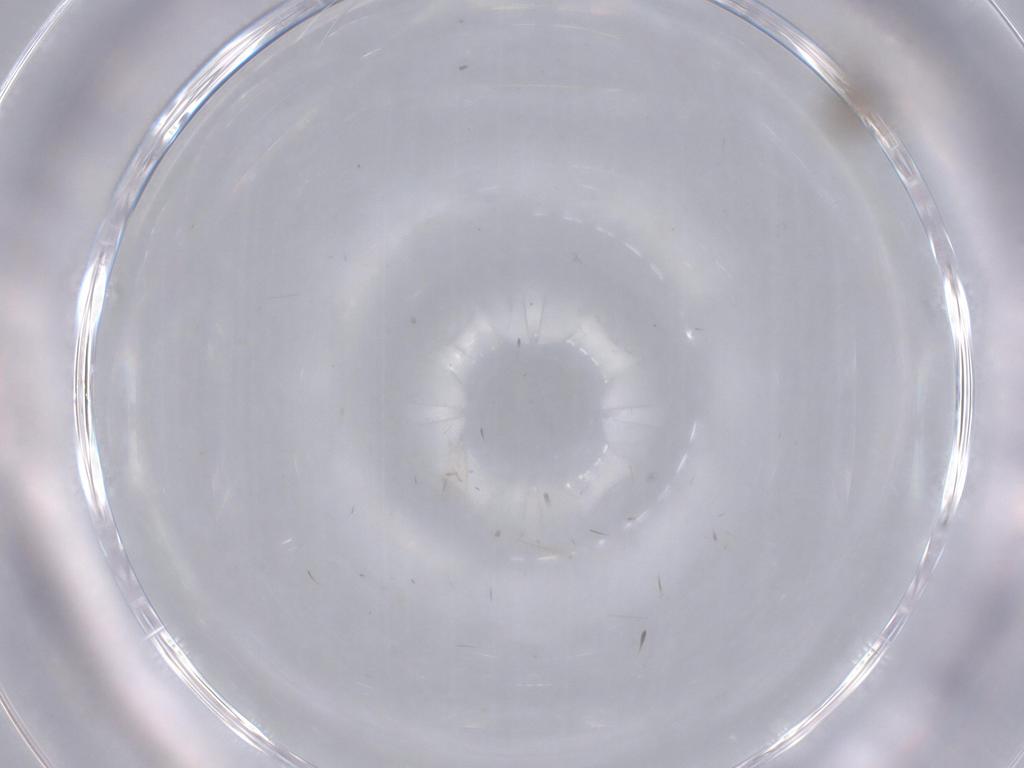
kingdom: Animalia
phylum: Arthropoda
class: Insecta
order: Diptera
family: Cecidomyiidae
